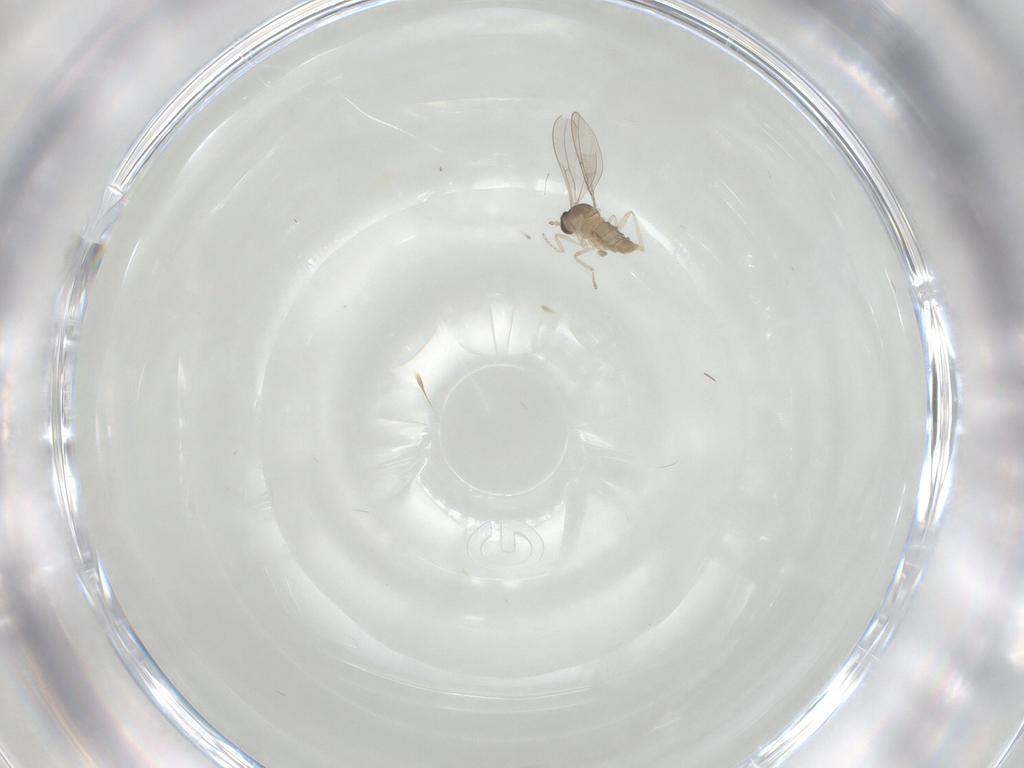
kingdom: Animalia
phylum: Arthropoda
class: Insecta
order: Diptera
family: Cecidomyiidae
